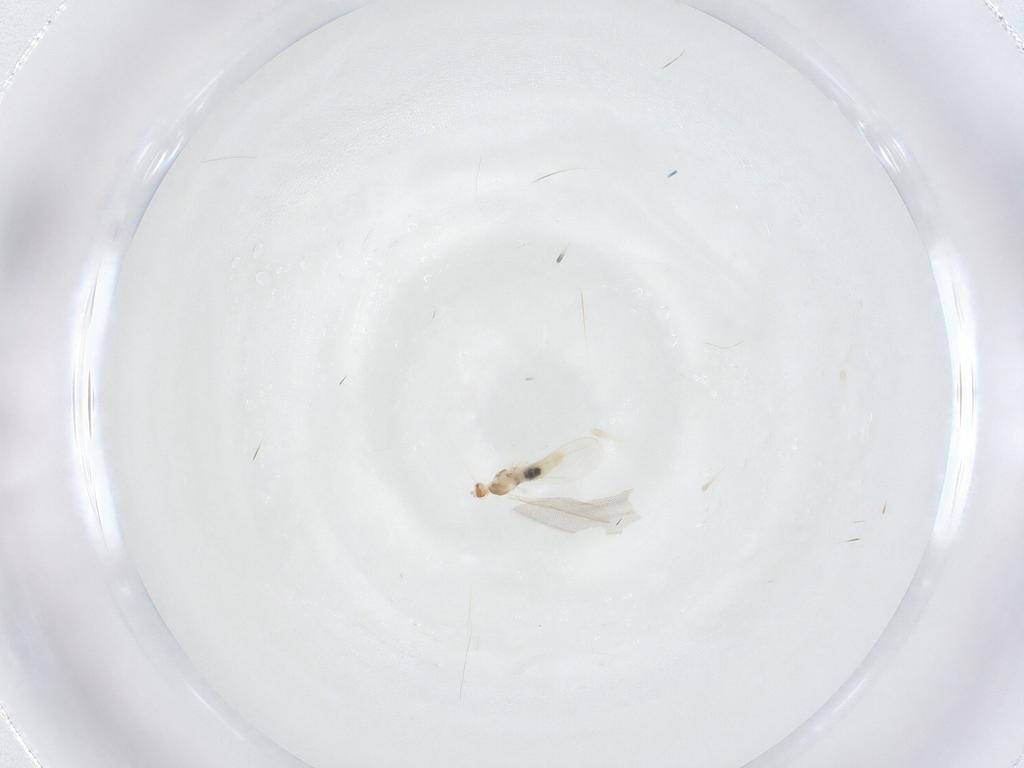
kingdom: Animalia
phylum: Arthropoda
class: Insecta
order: Diptera
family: Cecidomyiidae
